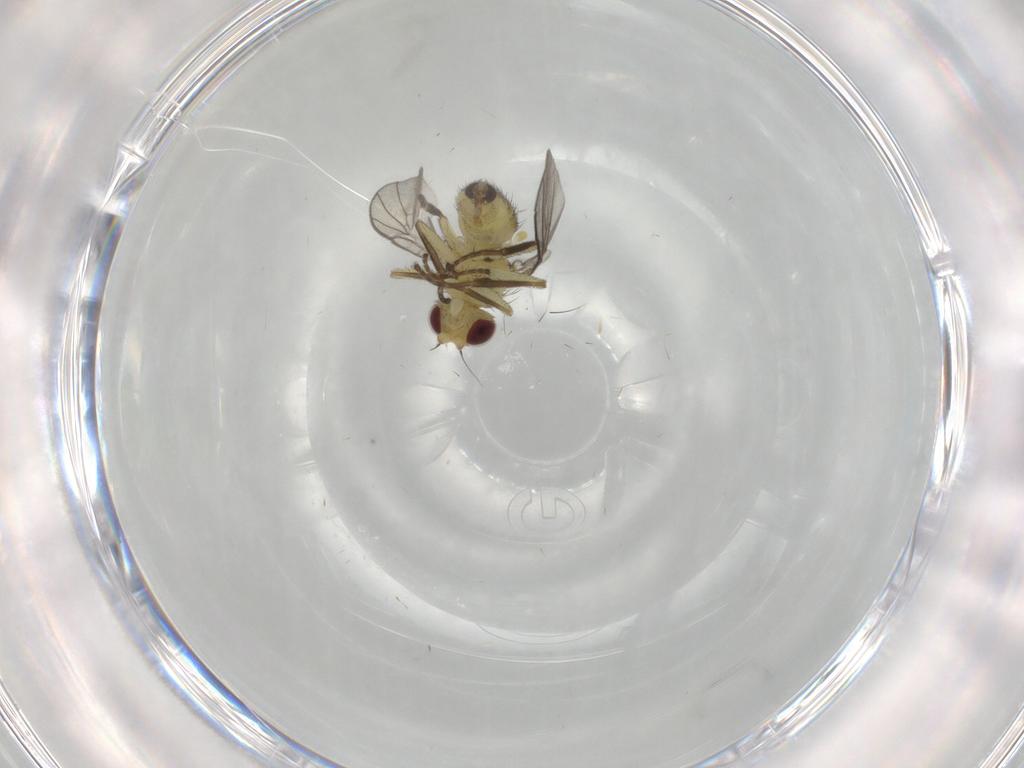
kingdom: Animalia
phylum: Arthropoda
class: Insecta
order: Diptera
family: Agromyzidae
